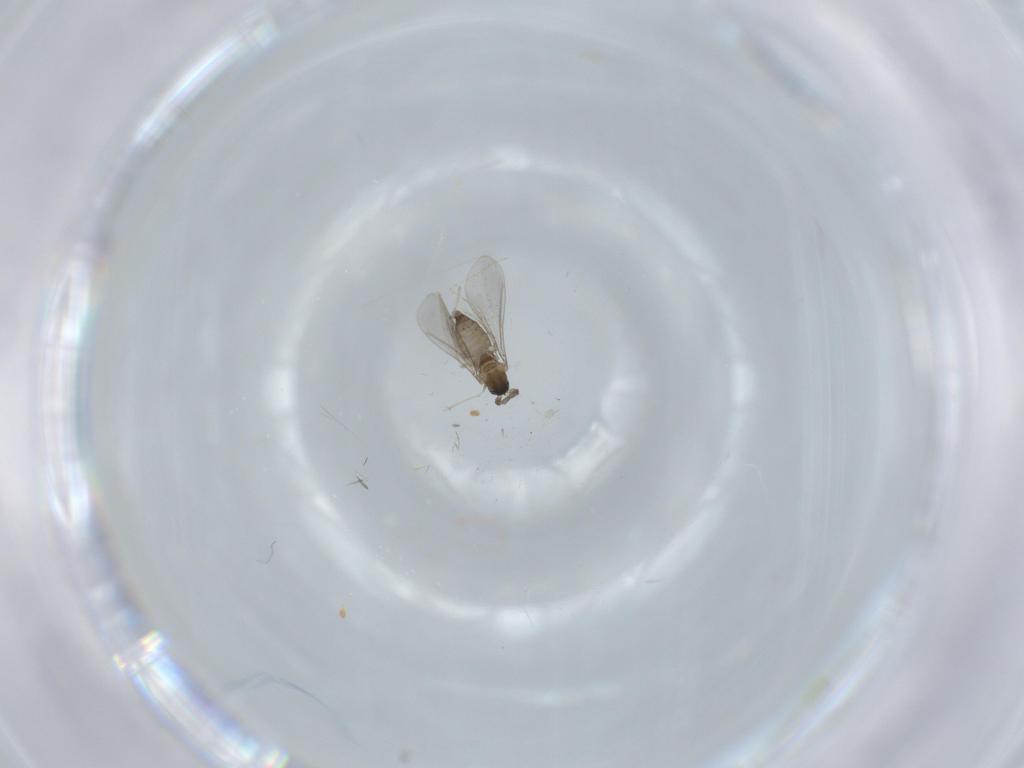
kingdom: Animalia
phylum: Arthropoda
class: Insecta
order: Diptera
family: Cecidomyiidae
